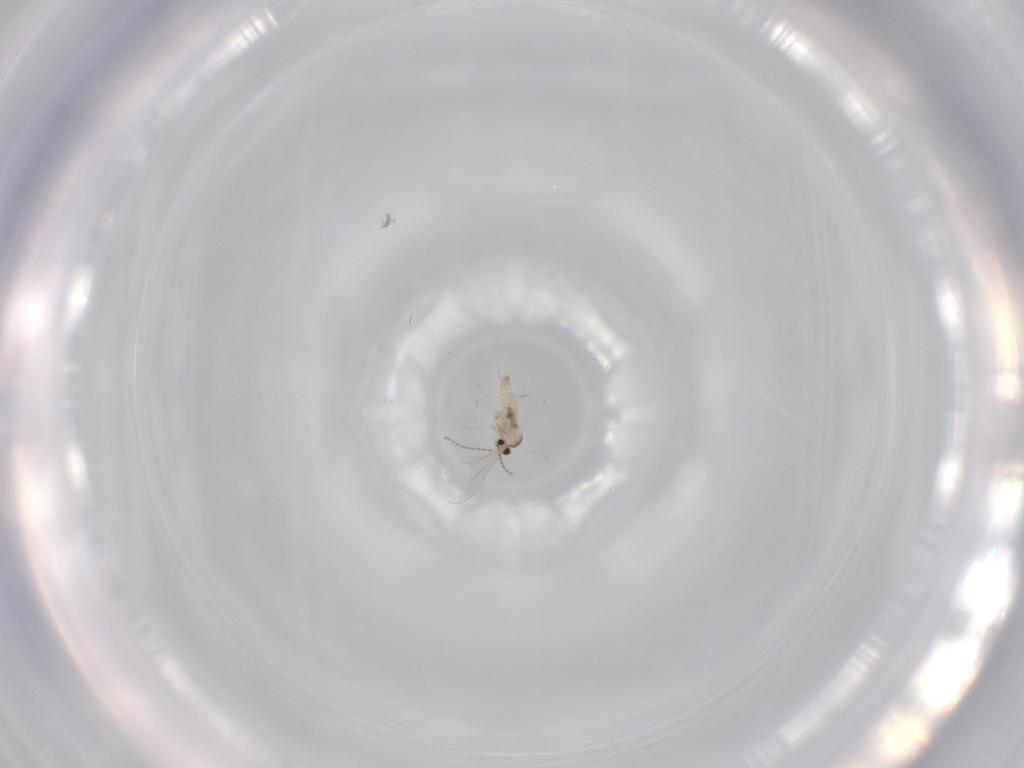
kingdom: Animalia
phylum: Arthropoda
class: Insecta
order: Diptera
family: Cecidomyiidae
